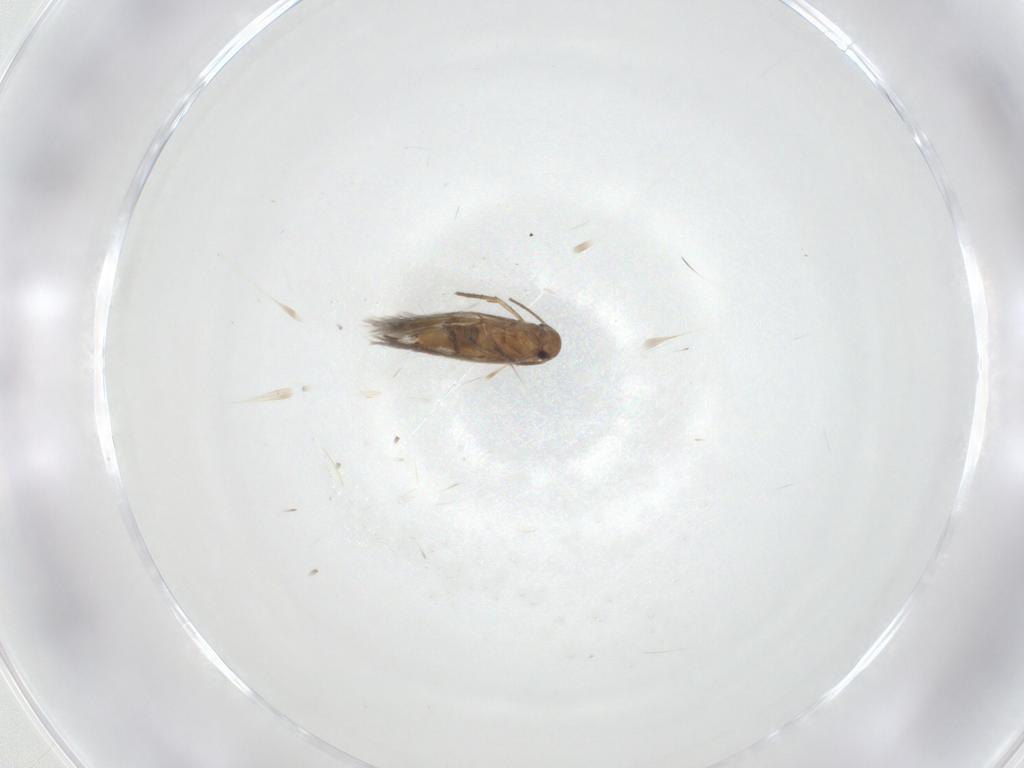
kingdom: Animalia
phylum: Arthropoda
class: Insecta
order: Lepidoptera
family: Heliozelidae
